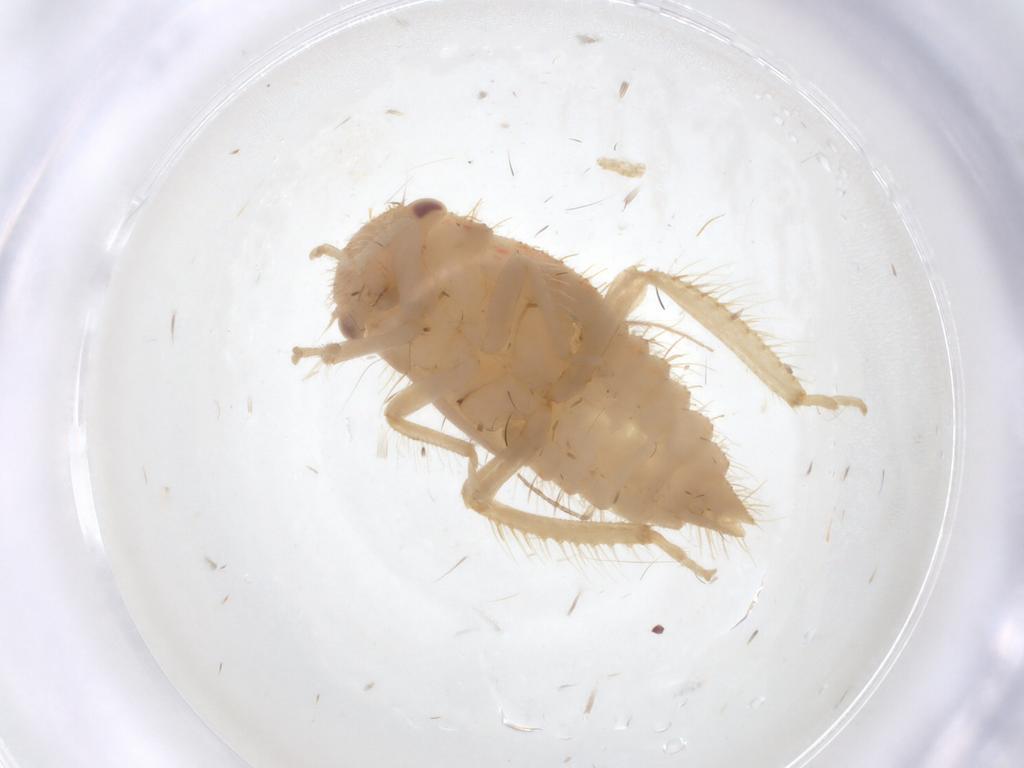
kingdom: Animalia
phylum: Arthropoda
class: Insecta
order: Hemiptera
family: Cicadellidae
